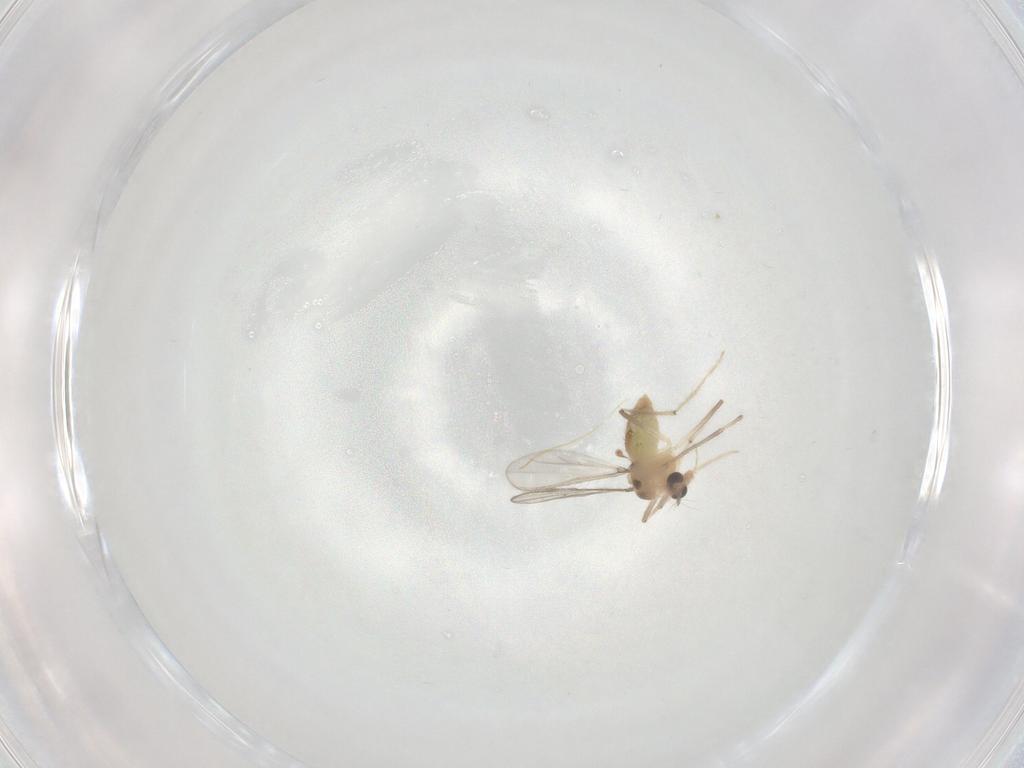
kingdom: Animalia
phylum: Arthropoda
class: Insecta
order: Diptera
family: Chironomidae
